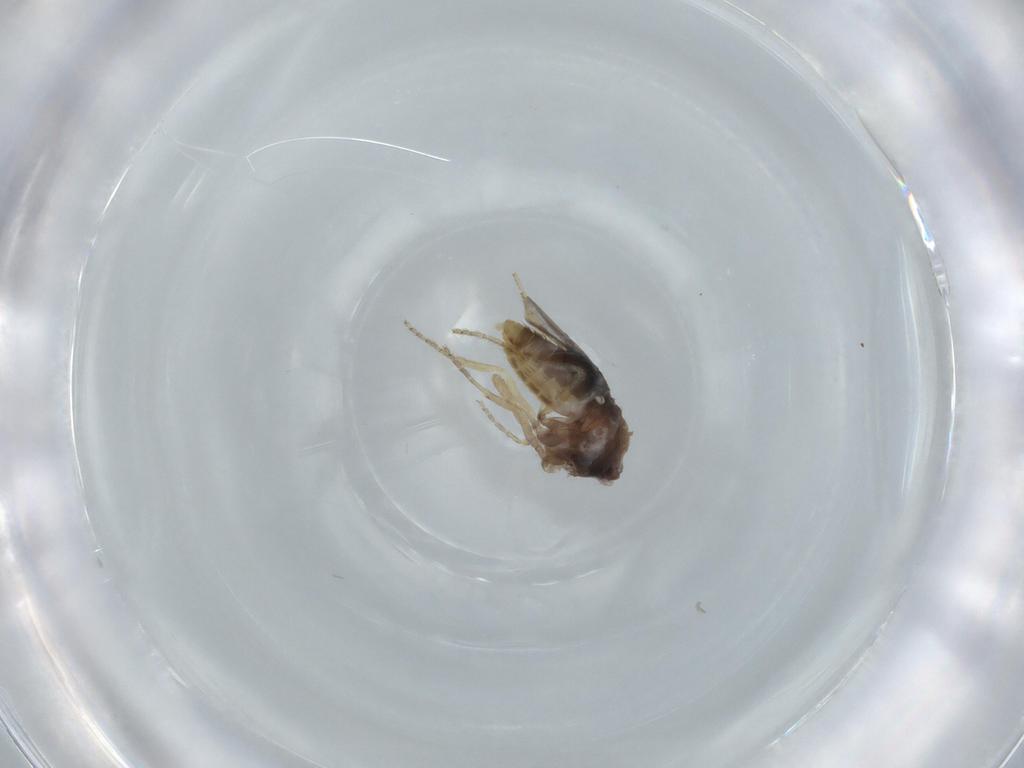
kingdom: Animalia
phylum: Arthropoda
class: Insecta
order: Diptera
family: Ceratopogonidae
